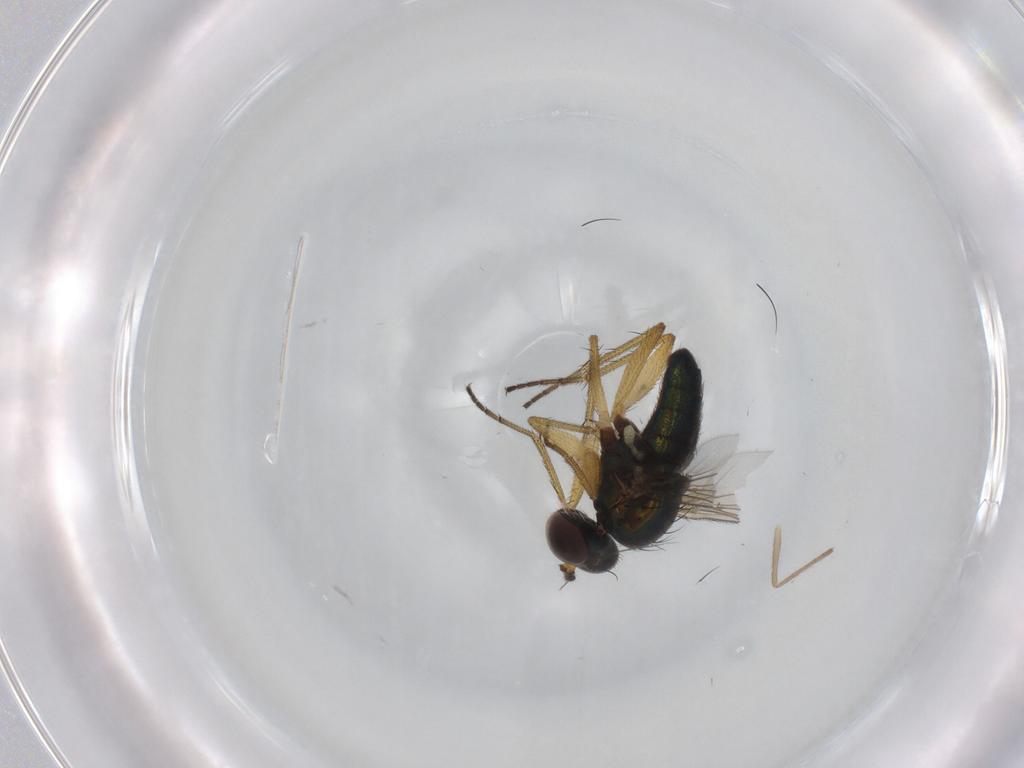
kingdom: Animalia
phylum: Arthropoda
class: Insecta
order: Diptera
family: Dolichopodidae
